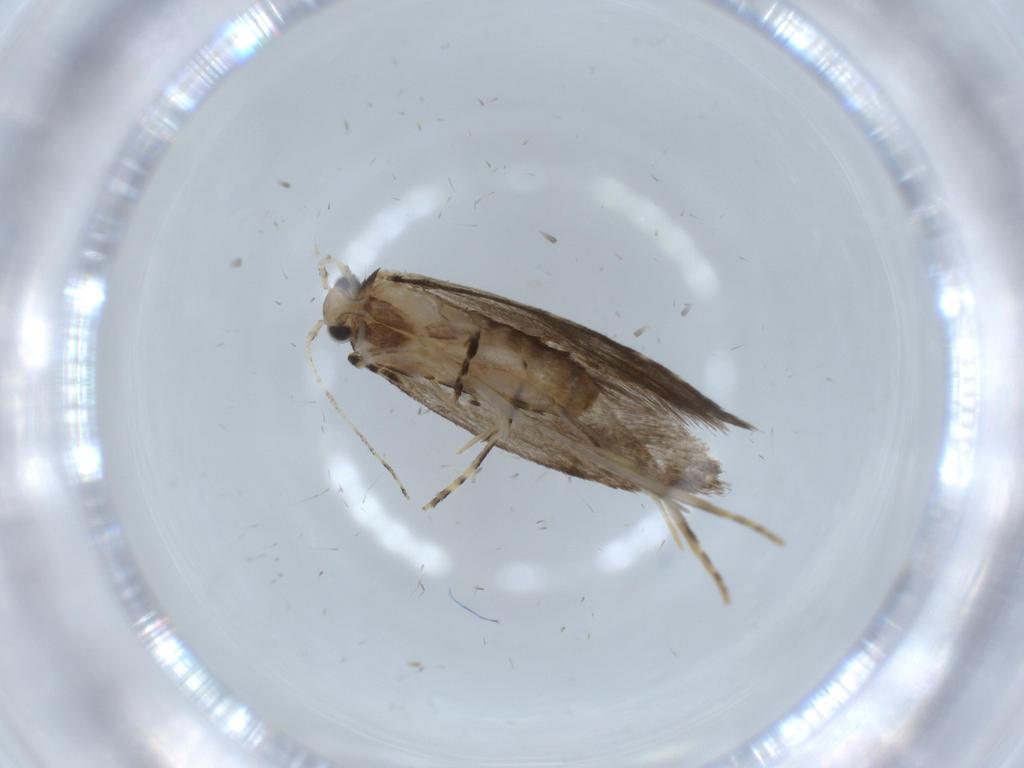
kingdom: Animalia
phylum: Arthropoda
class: Insecta
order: Lepidoptera
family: Tineidae
